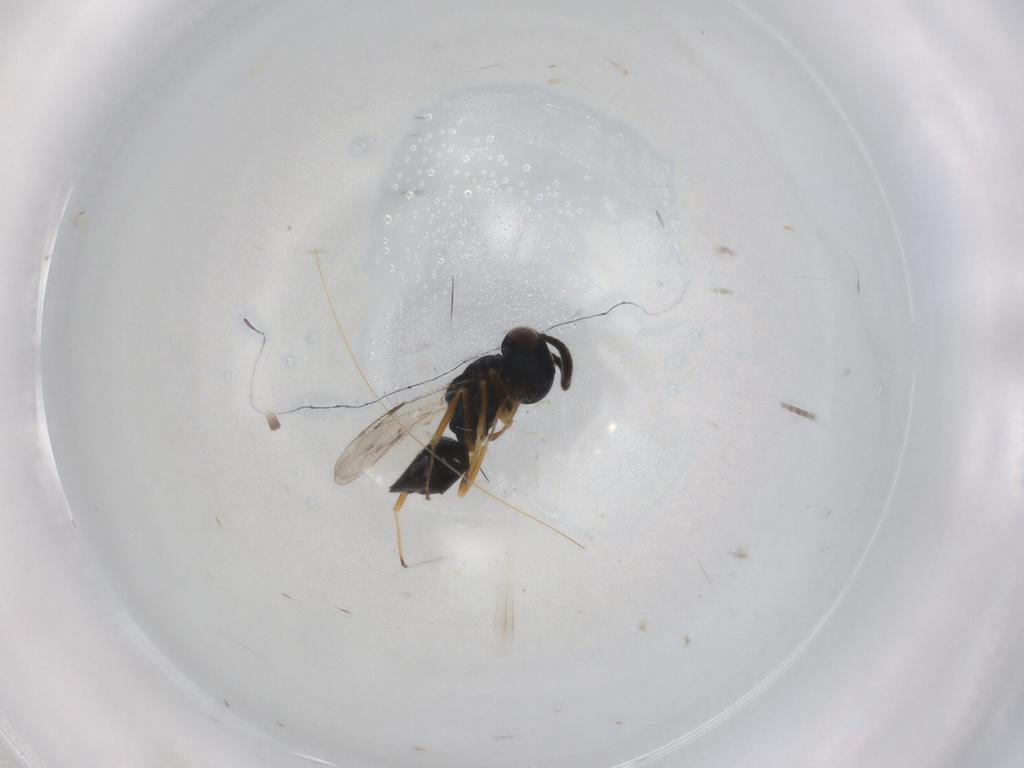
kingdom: Animalia
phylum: Arthropoda
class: Insecta
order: Hymenoptera
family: Pteromalidae
